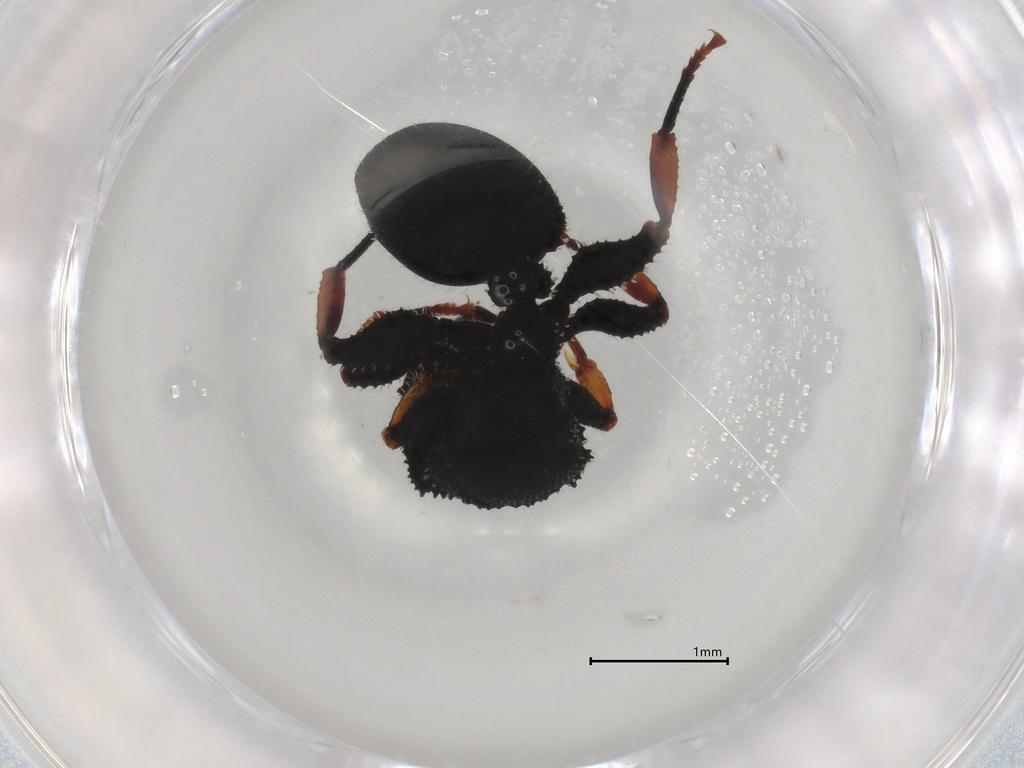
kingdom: Animalia
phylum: Arthropoda
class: Insecta
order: Hymenoptera
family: Formicidae
